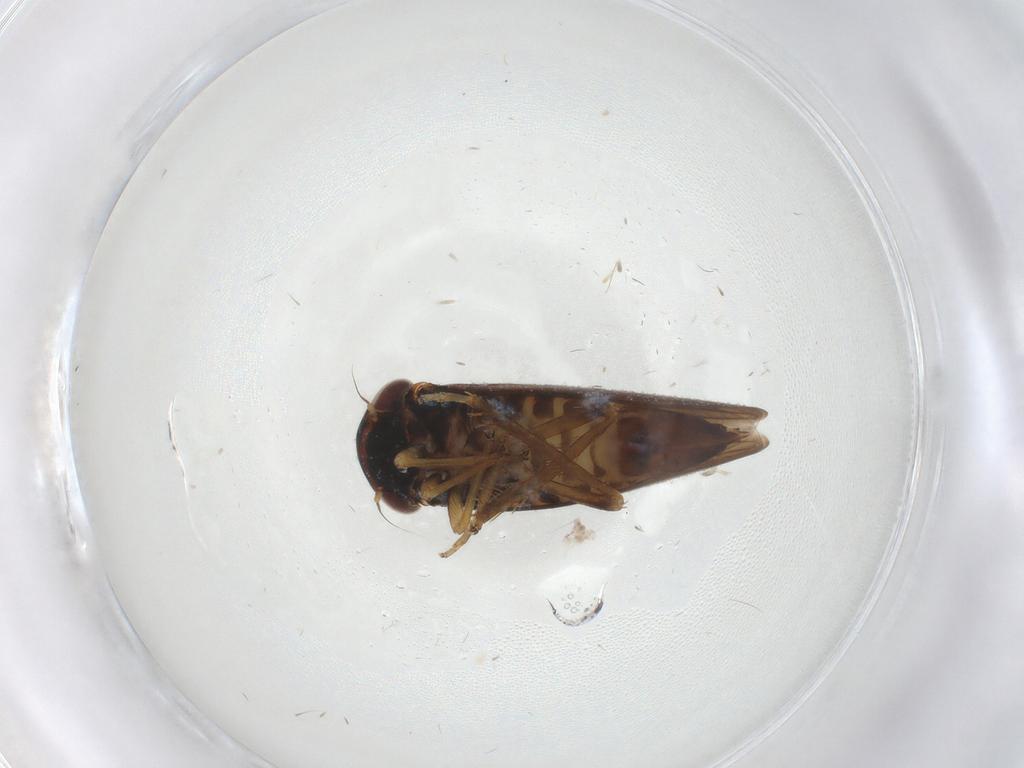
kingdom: Animalia
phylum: Arthropoda
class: Insecta
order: Hemiptera
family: Cicadellidae
